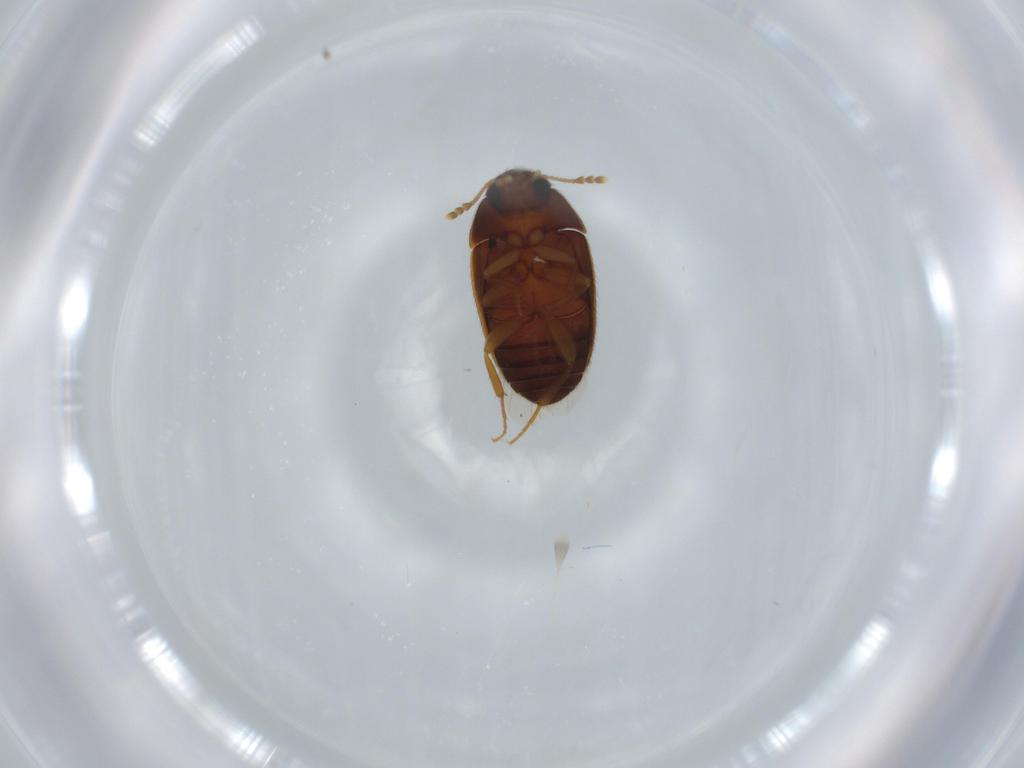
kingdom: Animalia
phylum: Arthropoda
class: Insecta
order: Coleoptera
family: Mycetophagidae
